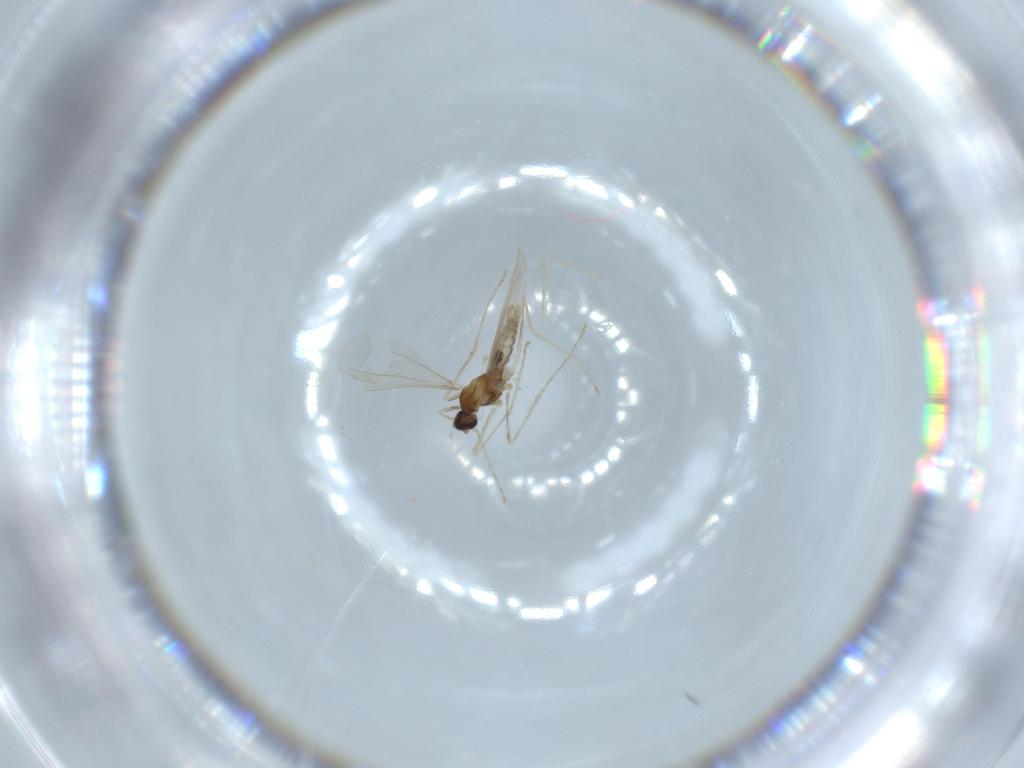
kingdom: Animalia
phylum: Arthropoda
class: Insecta
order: Diptera
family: Cecidomyiidae
